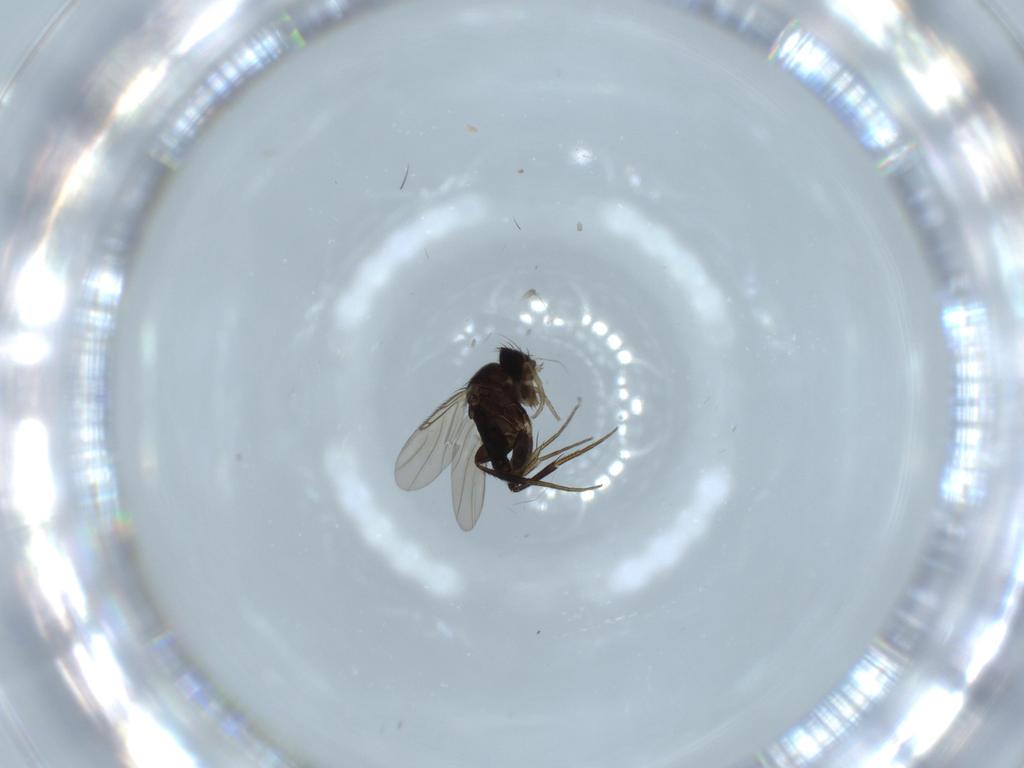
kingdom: Animalia
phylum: Arthropoda
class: Insecta
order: Diptera
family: Phoridae
